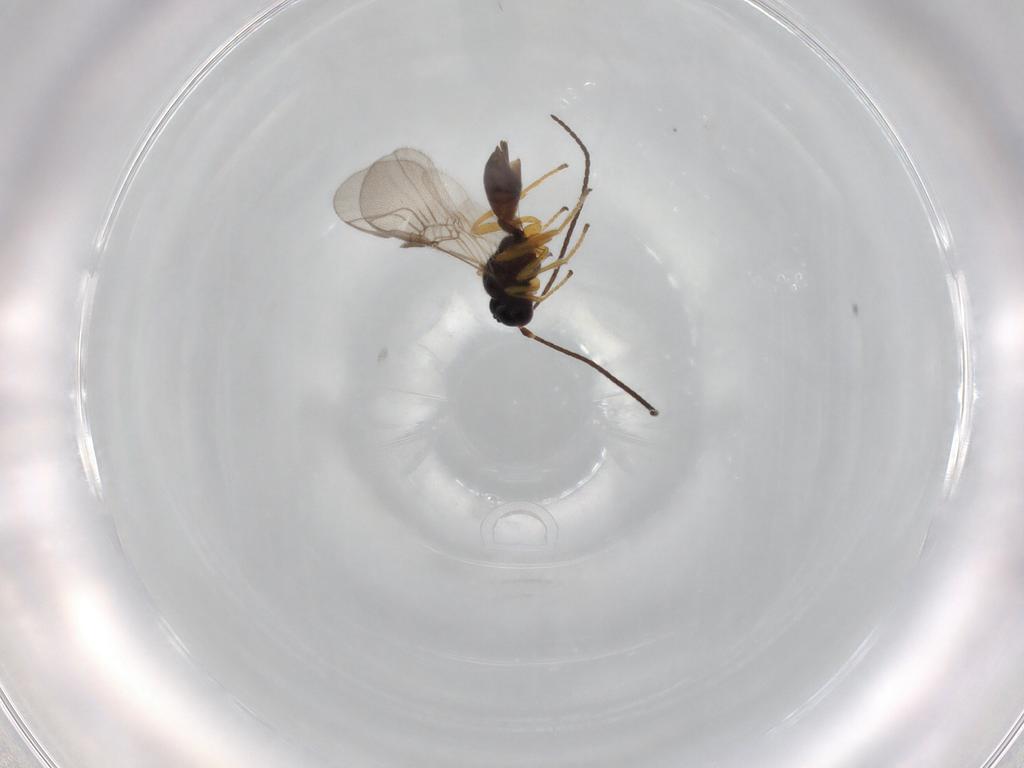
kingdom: Animalia
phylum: Arthropoda
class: Insecta
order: Hymenoptera
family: Braconidae
